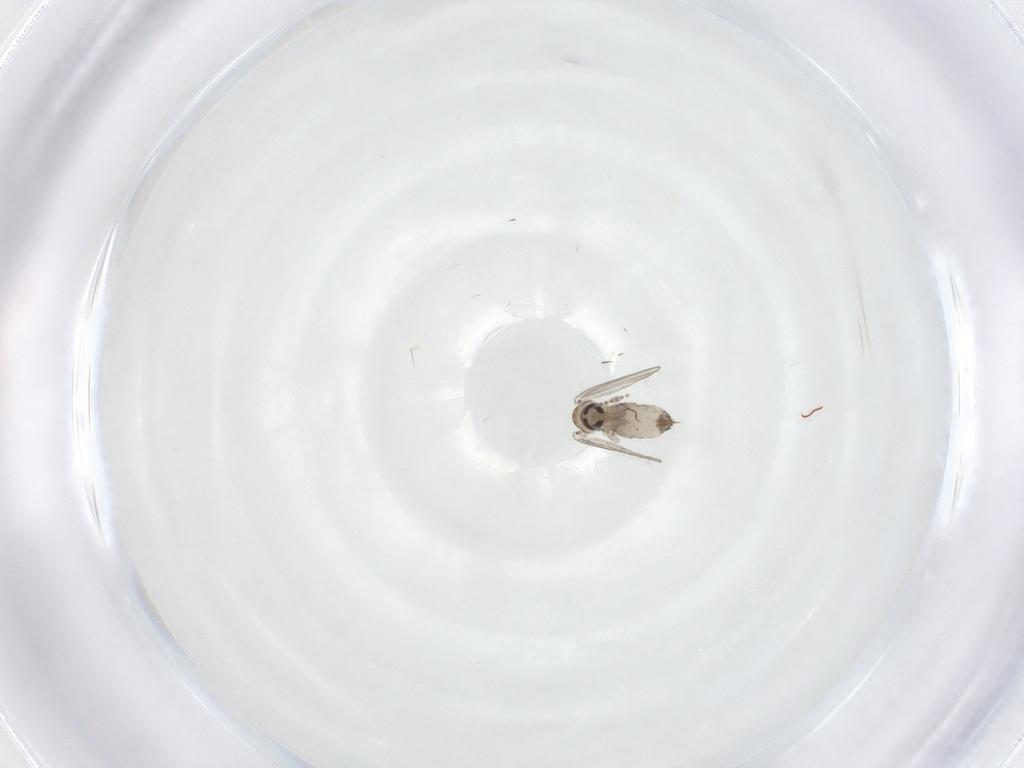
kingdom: Animalia
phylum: Arthropoda
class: Insecta
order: Diptera
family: Psychodidae
